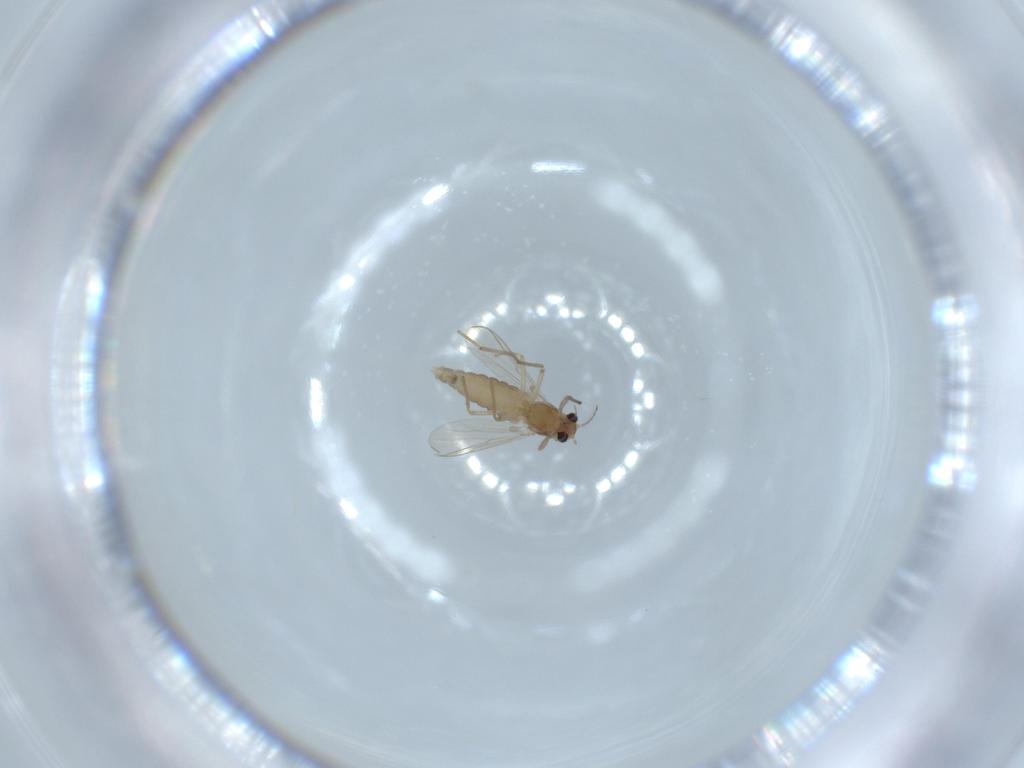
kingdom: Animalia
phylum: Arthropoda
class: Insecta
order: Diptera
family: Chironomidae
